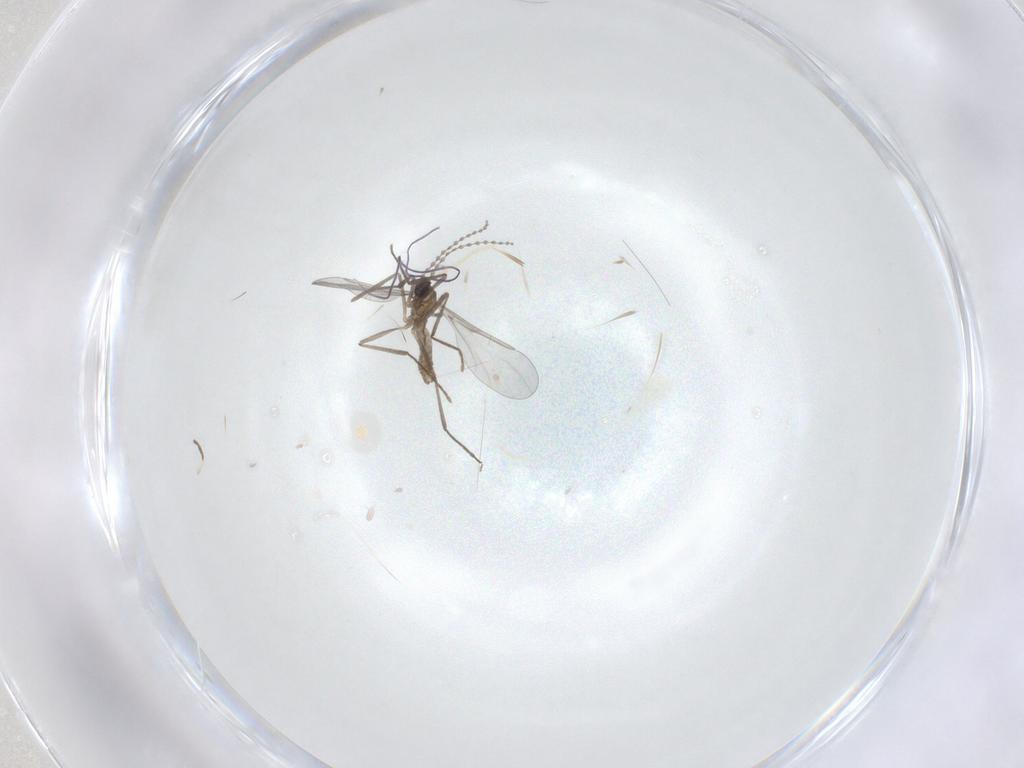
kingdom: Animalia
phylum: Arthropoda
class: Insecta
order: Diptera
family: Cecidomyiidae
